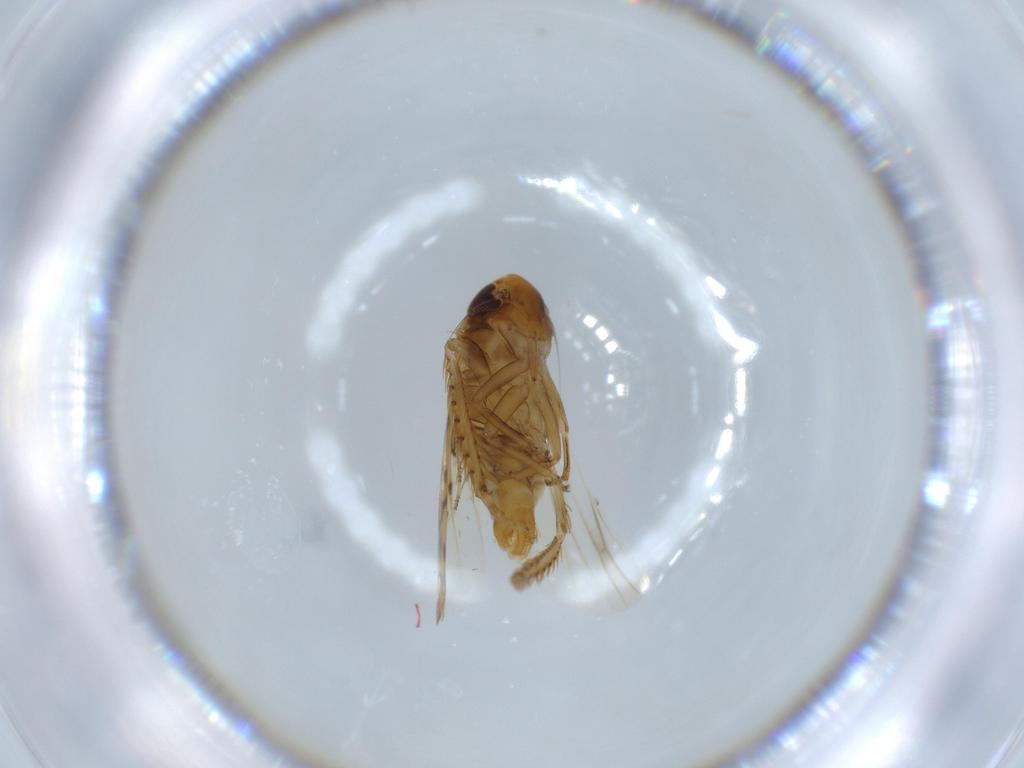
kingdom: Animalia
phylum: Arthropoda
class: Insecta
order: Hemiptera
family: Cicadellidae
